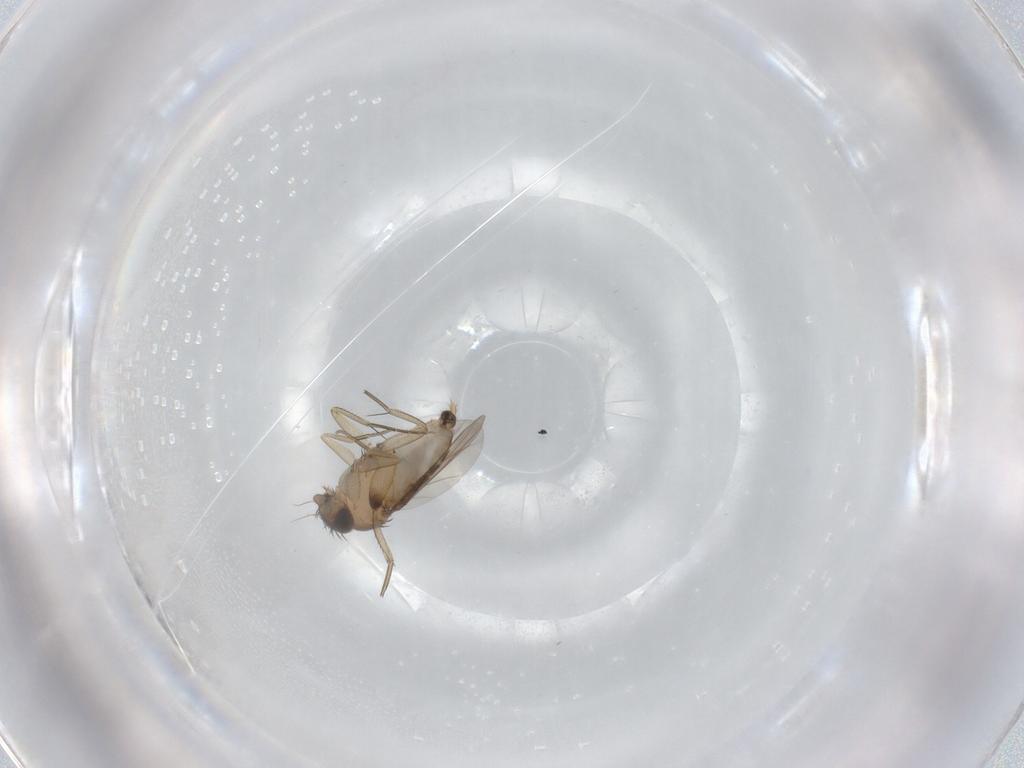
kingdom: Animalia
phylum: Arthropoda
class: Insecta
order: Diptera
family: Phoridae
